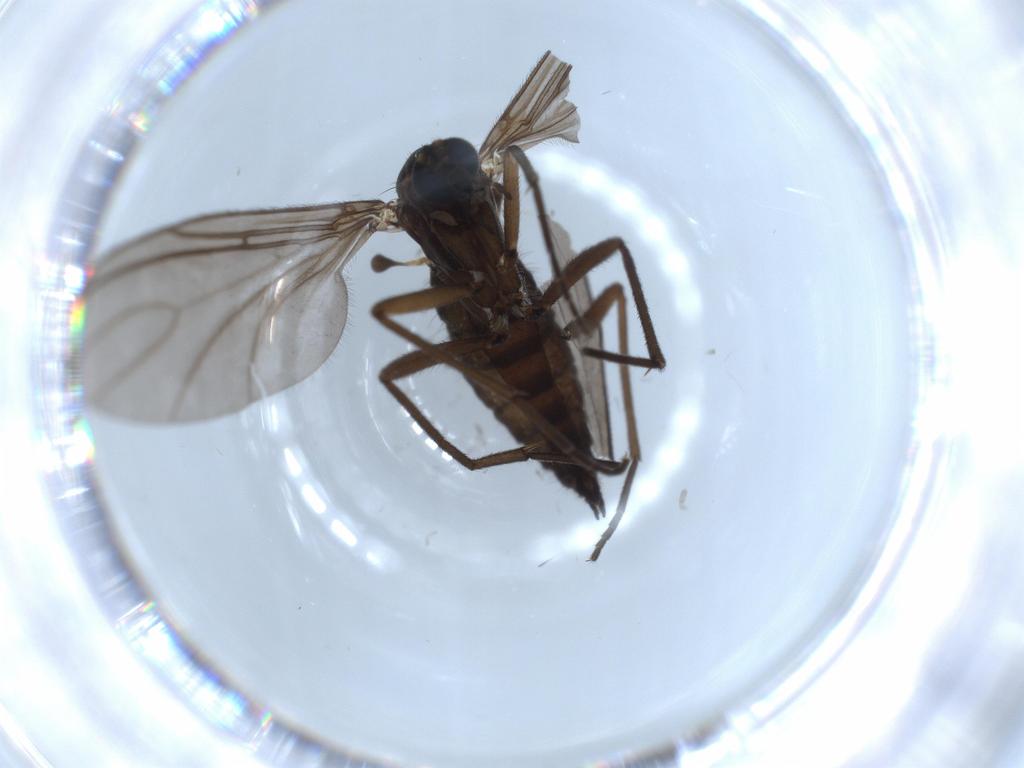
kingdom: Animalia
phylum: Arthropoda
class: Insecta
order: Diptera
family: Sciaridae
